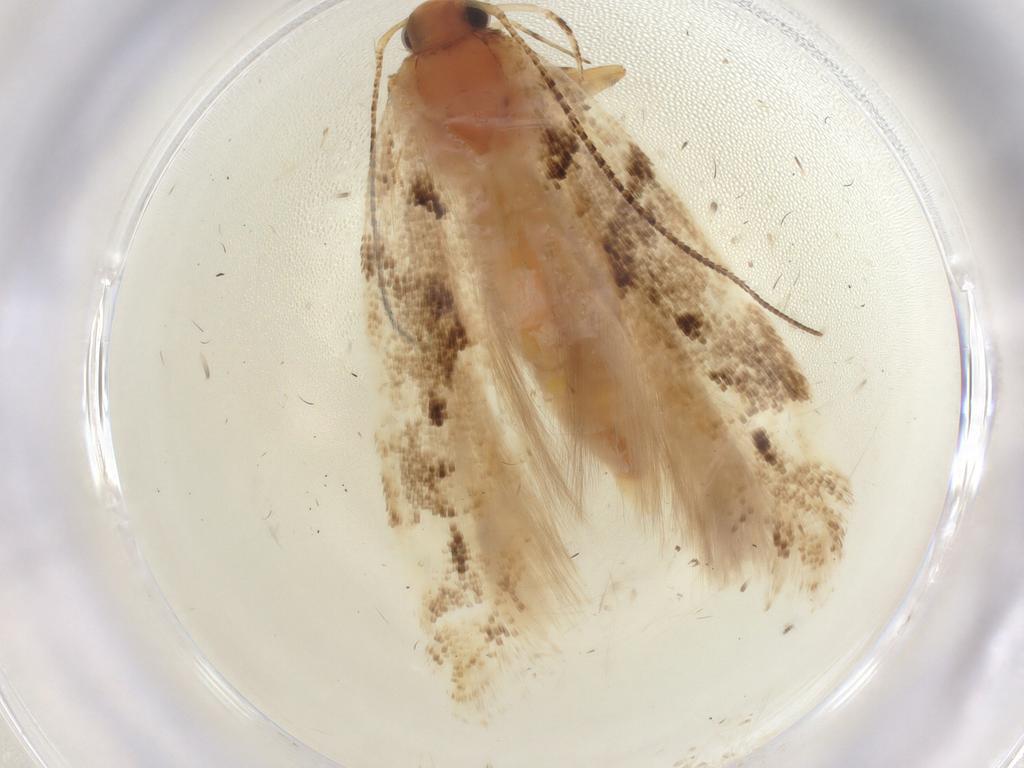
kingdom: Animalia
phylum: Arthropoda
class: Insecta
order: Lepidoptera
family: Gelechiidae
